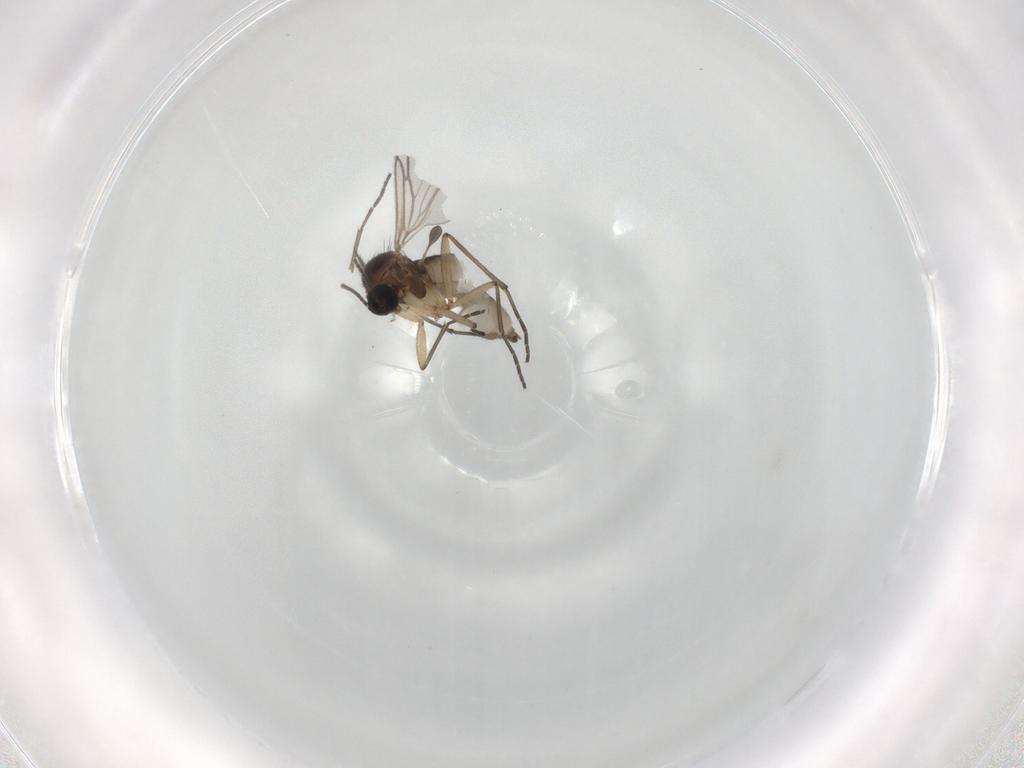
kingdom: Animalia
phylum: Arthropoda
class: Insecta
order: Diptera
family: Sciaridae
